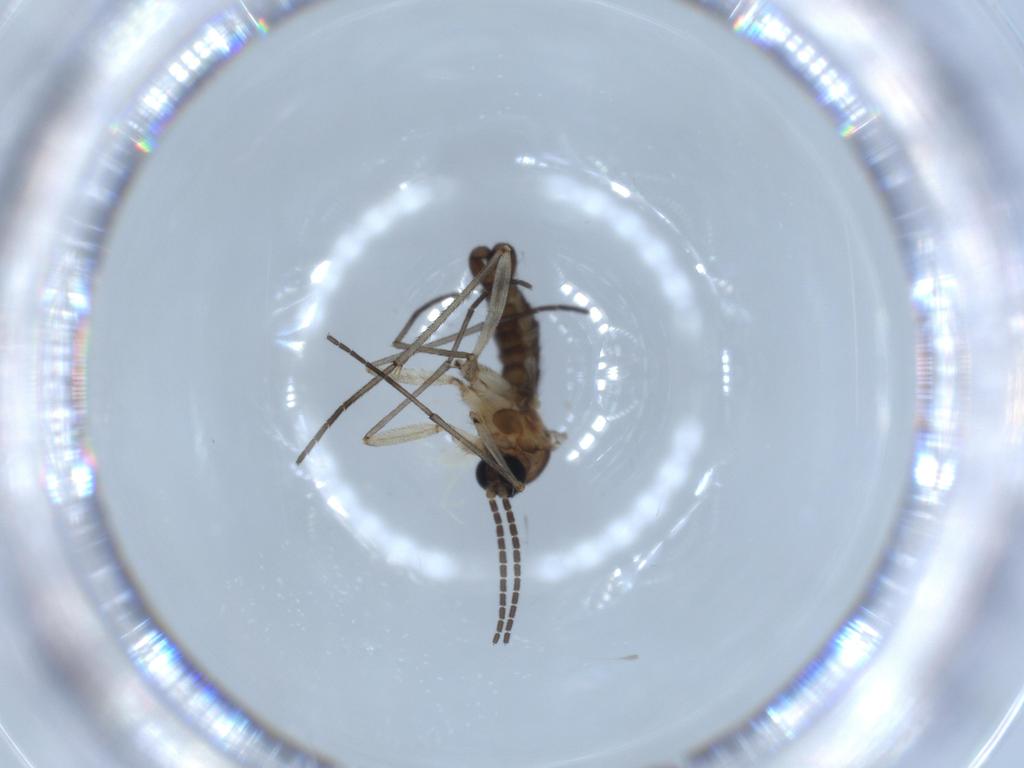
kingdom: Animalia
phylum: Arthropoda
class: Insecta
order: Diptera
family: Sciaridae
